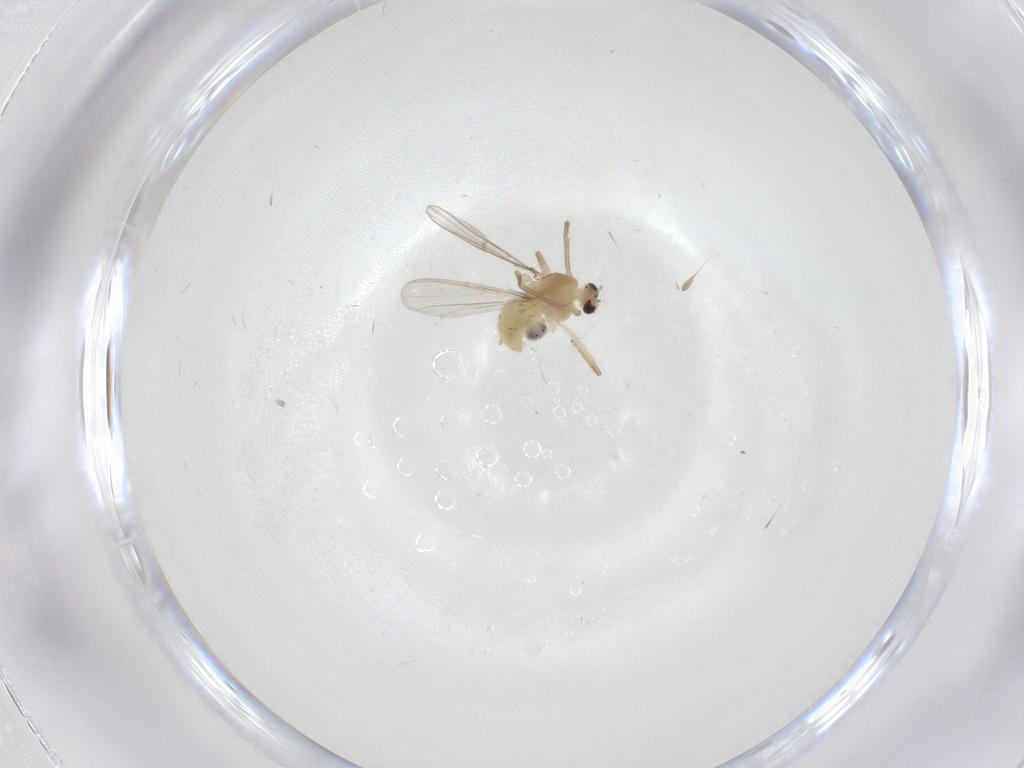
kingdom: Animalia
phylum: Arthropoda
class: Insecta
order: Diptera
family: Chironomidae
